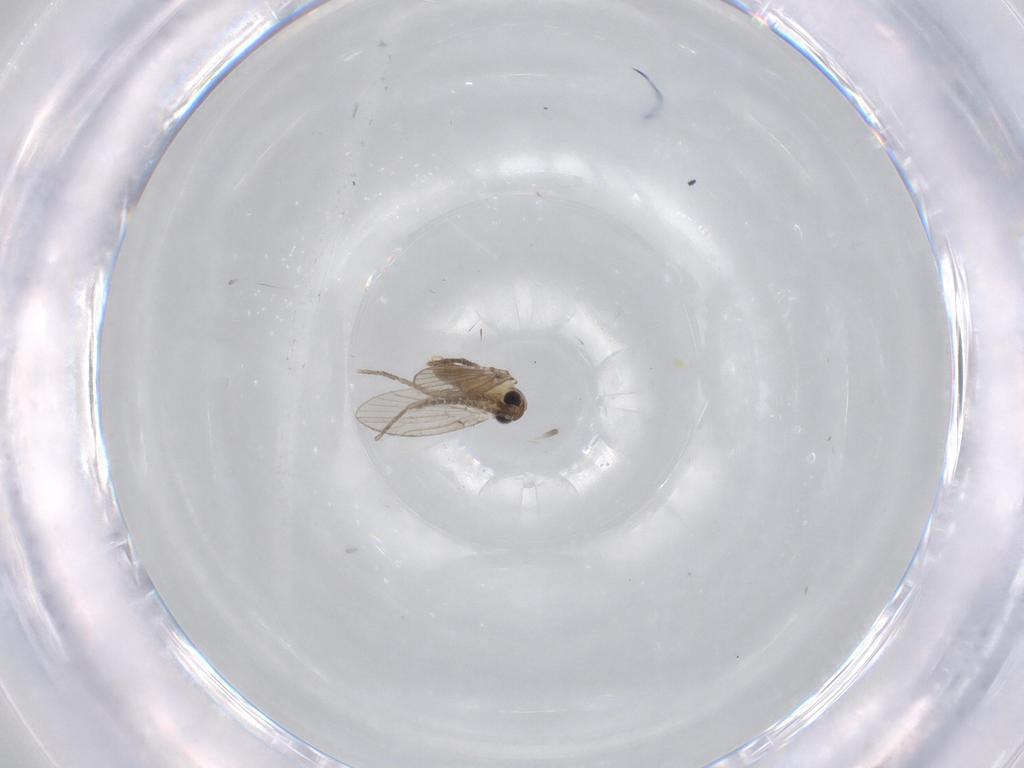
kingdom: Animalia
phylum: Arthropoda
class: Insecta
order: Diptera
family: Psychodidae
